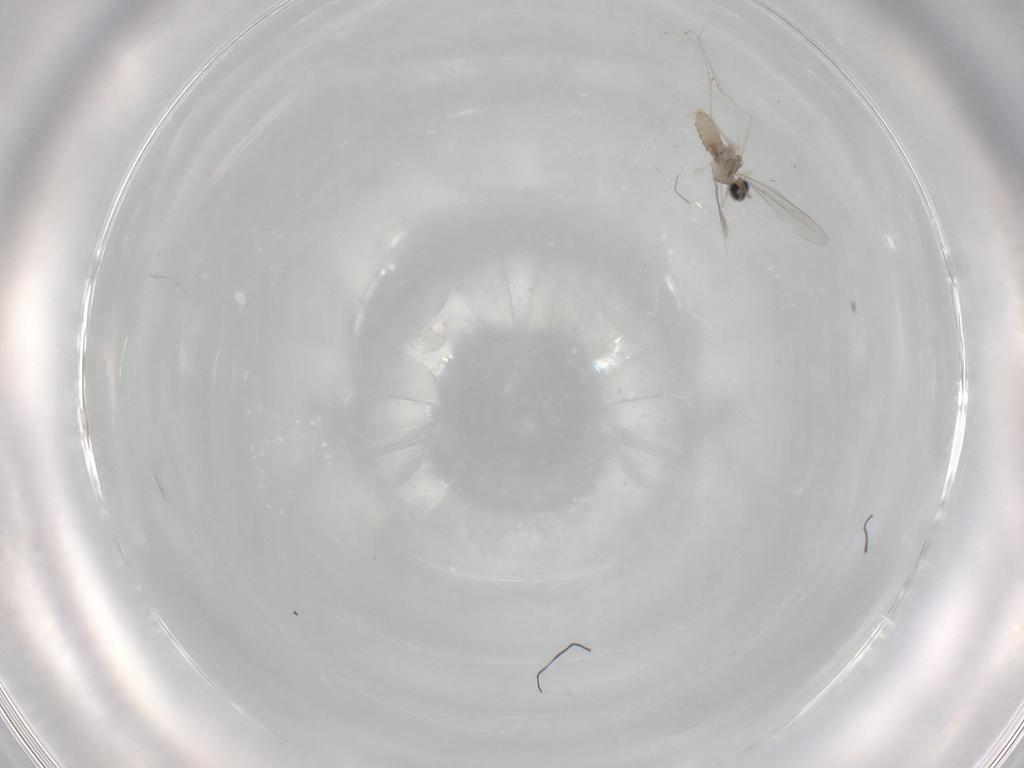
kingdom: Animalia
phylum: Arthropoda
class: Insecta
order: Diptera
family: Cecidomyiidae
